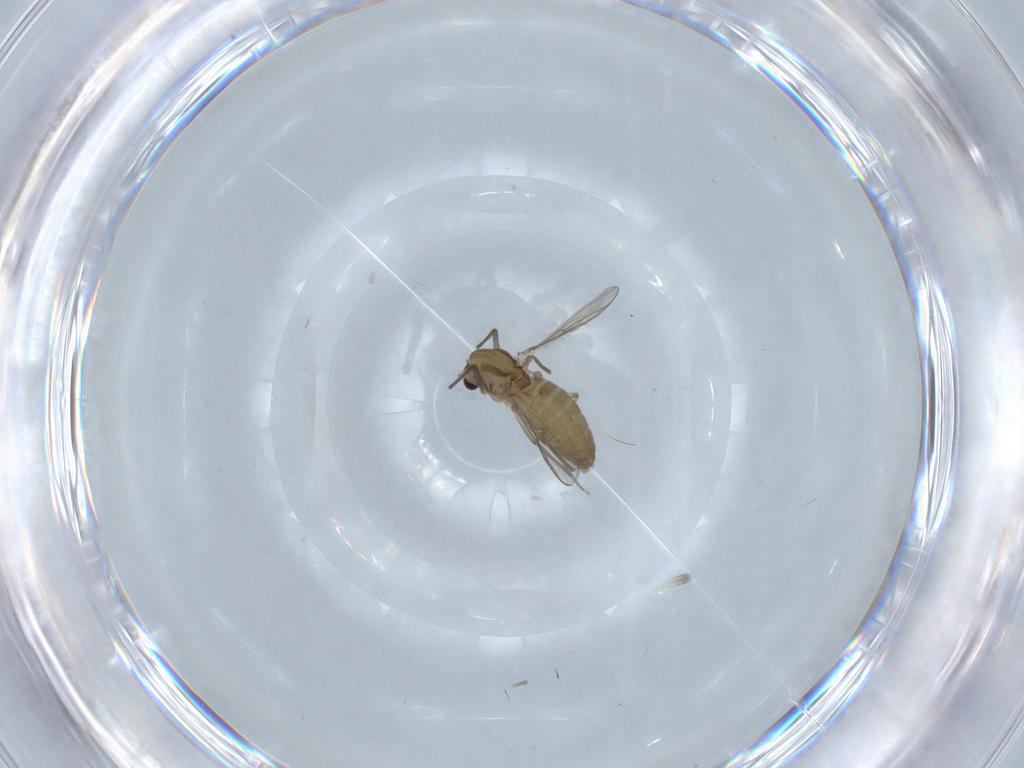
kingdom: Animalia
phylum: Arthropoda
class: Insecta
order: Diptera
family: Chironomidae
